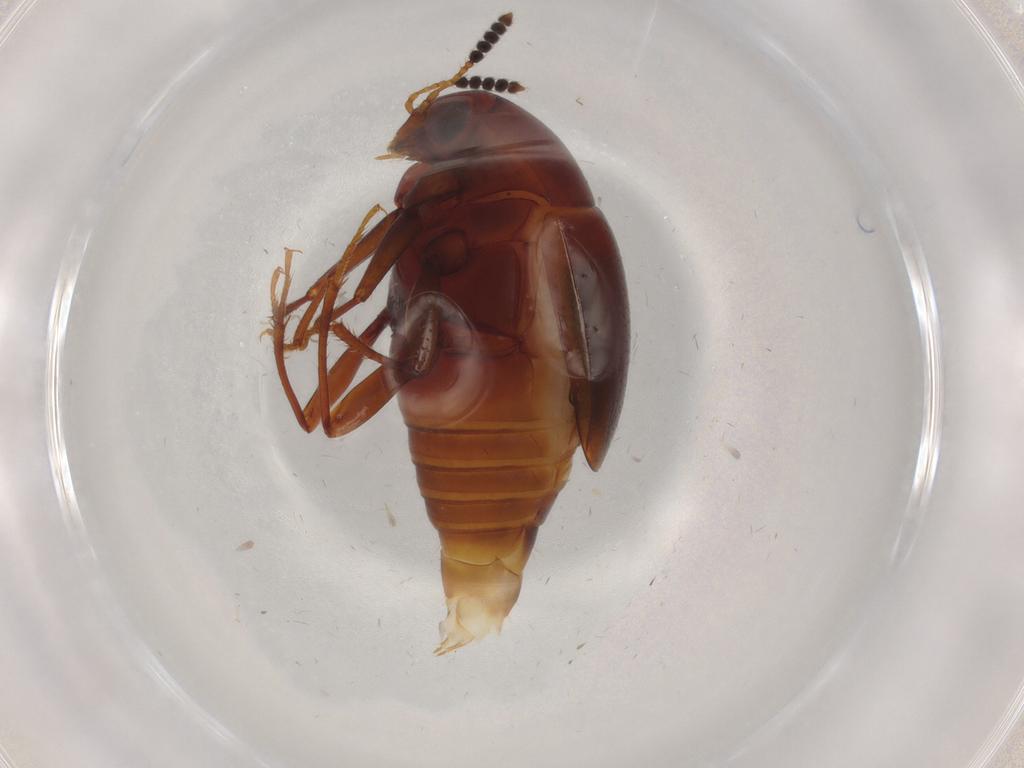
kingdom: Animalia
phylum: Arthropoda
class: Insecta
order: Coleoptera
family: Staphylinidae
